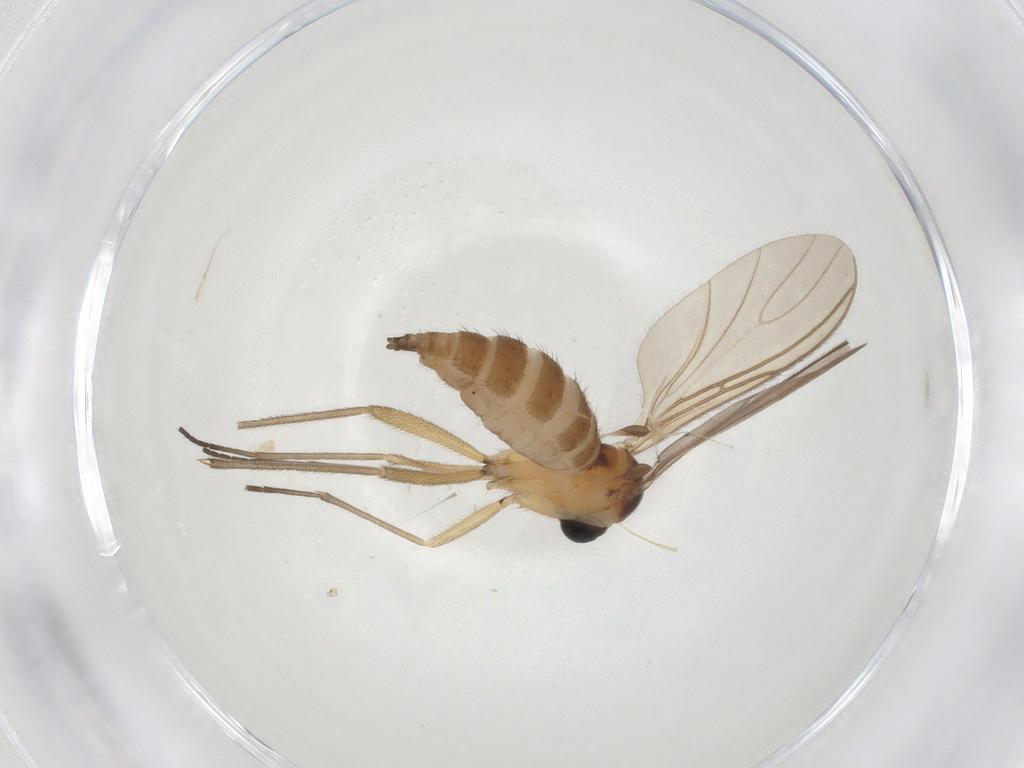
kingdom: Animalia
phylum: Arthropoda
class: Insecta
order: Diptera
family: Sciaridae
